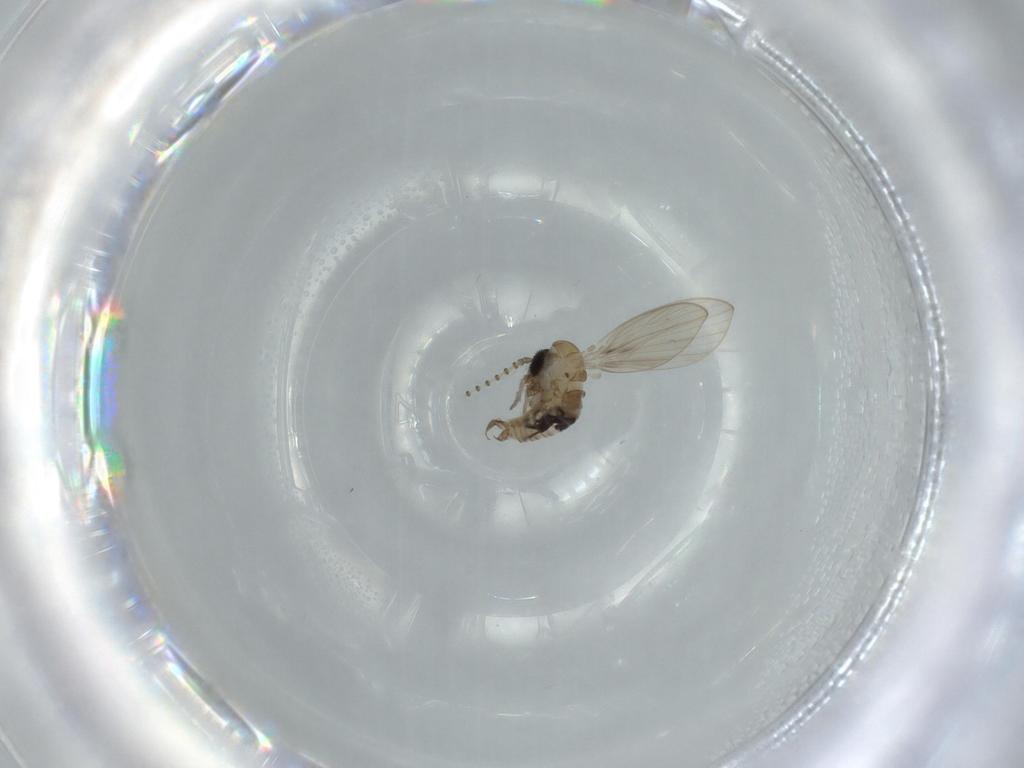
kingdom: Animalia
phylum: Arthropoda
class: Insecta
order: Diptera
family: Psychodidae
